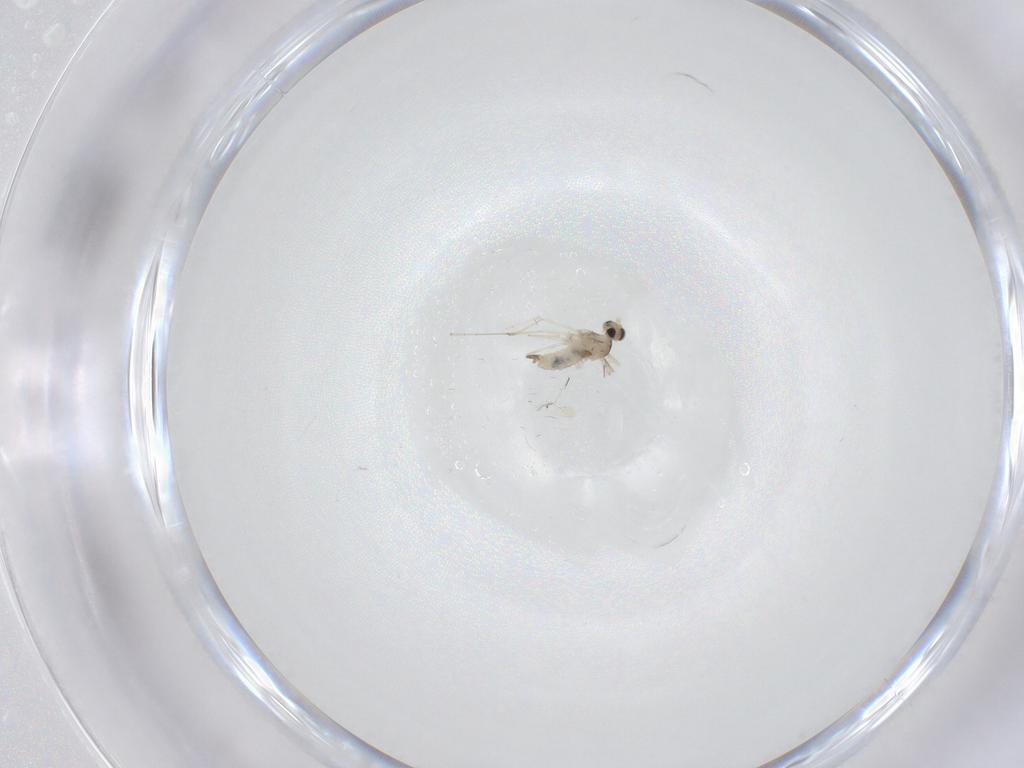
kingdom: Animalia
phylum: Arthropoda
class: Insecta
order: Diptera
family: Cecidomyiidae
